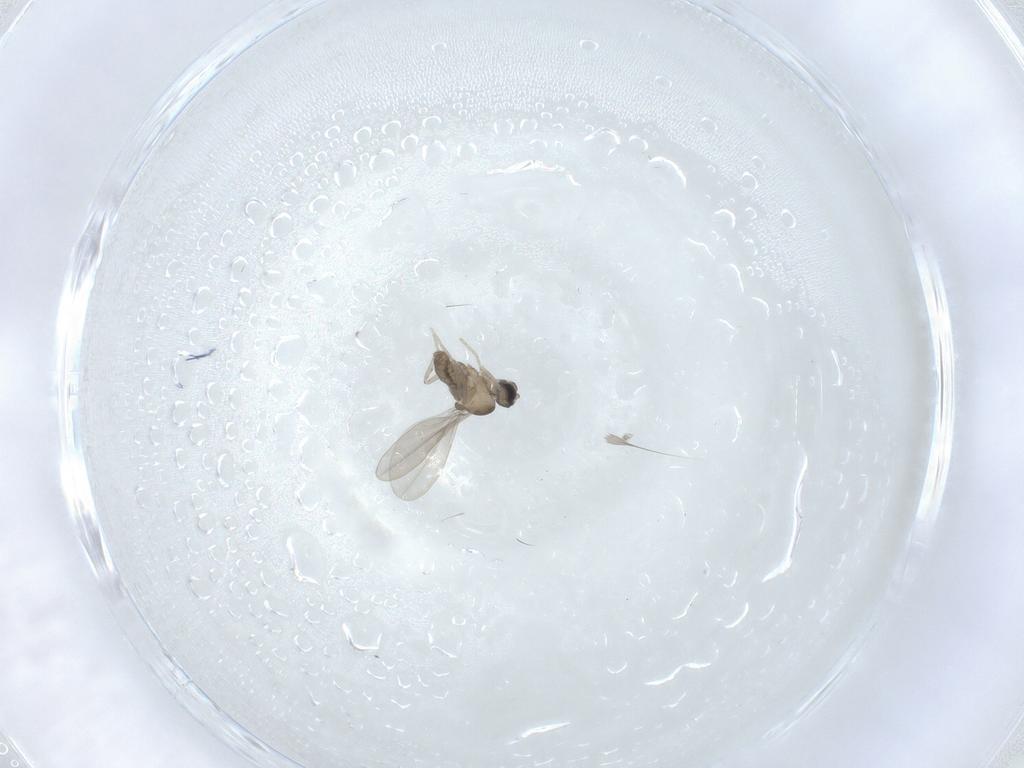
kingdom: Animalia
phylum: Arthropoda
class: Insecta
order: Diptera
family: Cecidomyiidae
